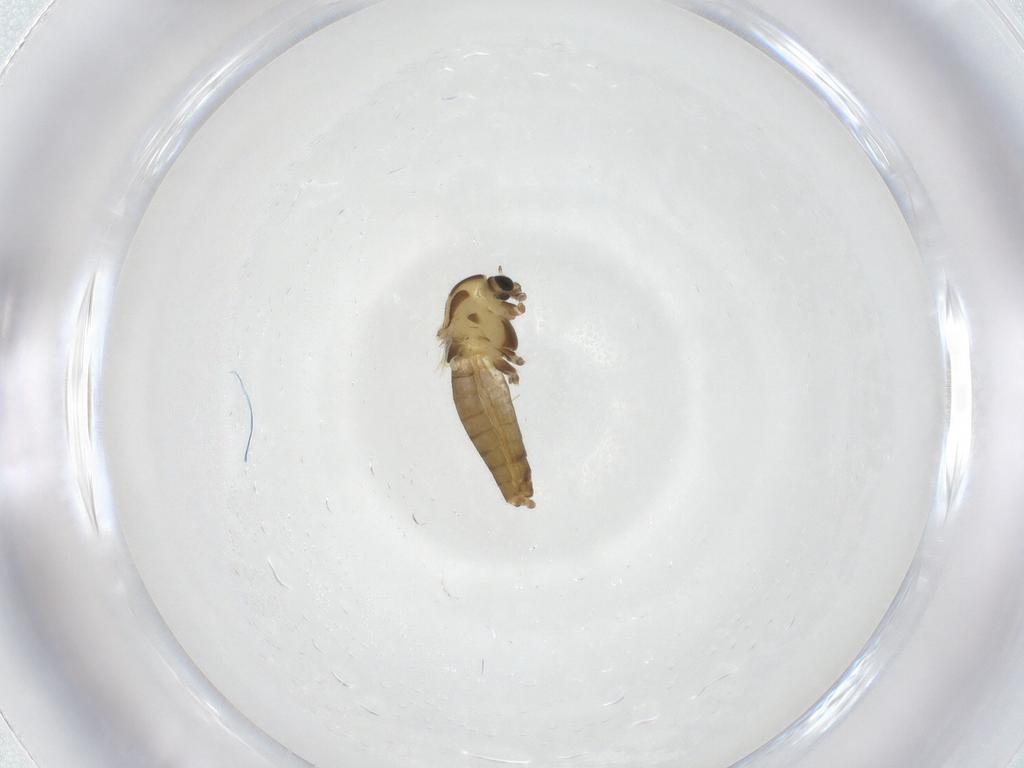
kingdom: Animalia
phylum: Arthropoda
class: Insecta
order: Diptera
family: Chironomidae
